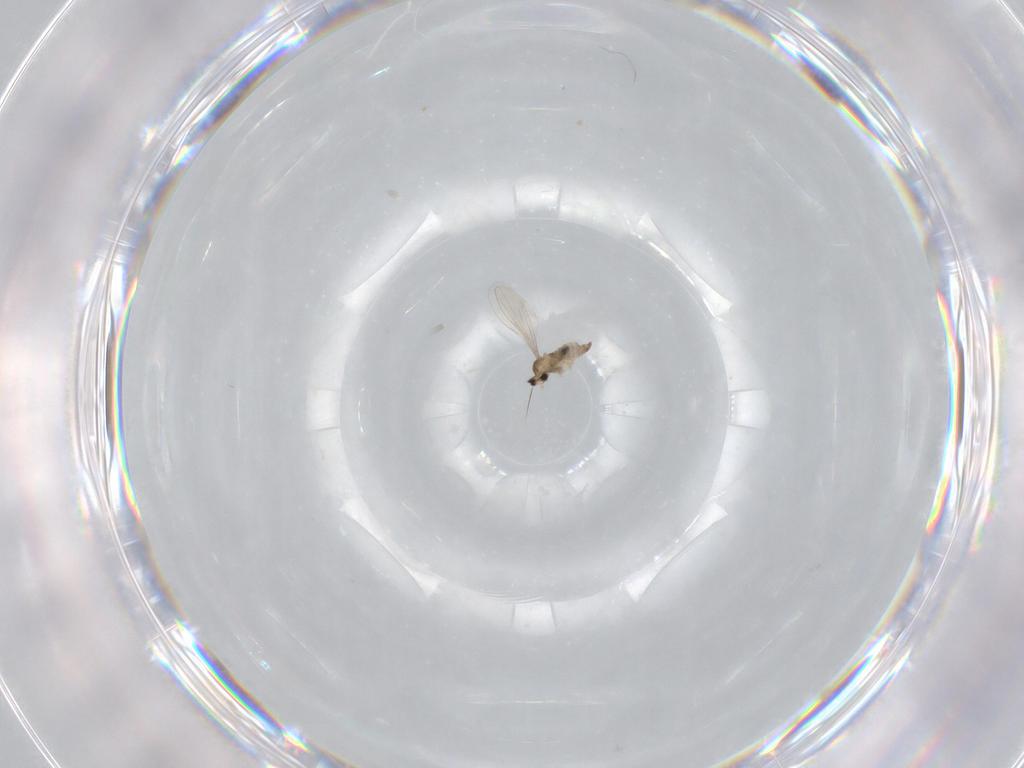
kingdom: Animalia
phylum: Arthropoda
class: Insecta
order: Diptera
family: Cecidomyiidae
